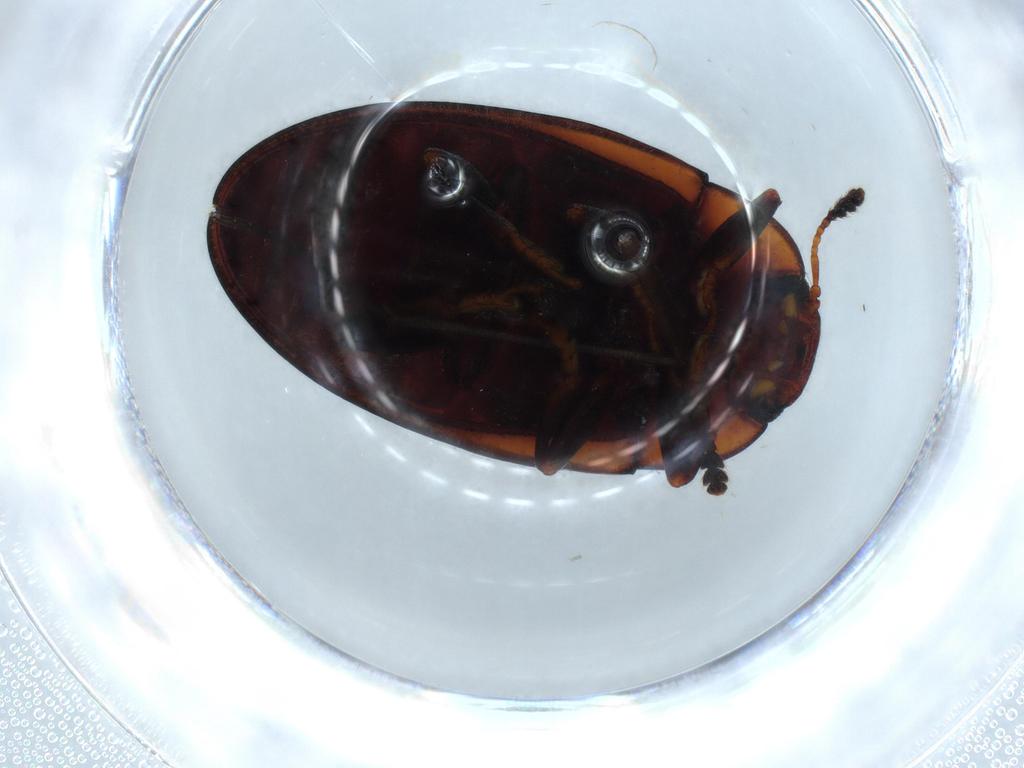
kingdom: Animalia
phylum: Arthropoda
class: Insecta
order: Coleoptera
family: Erotylidae
